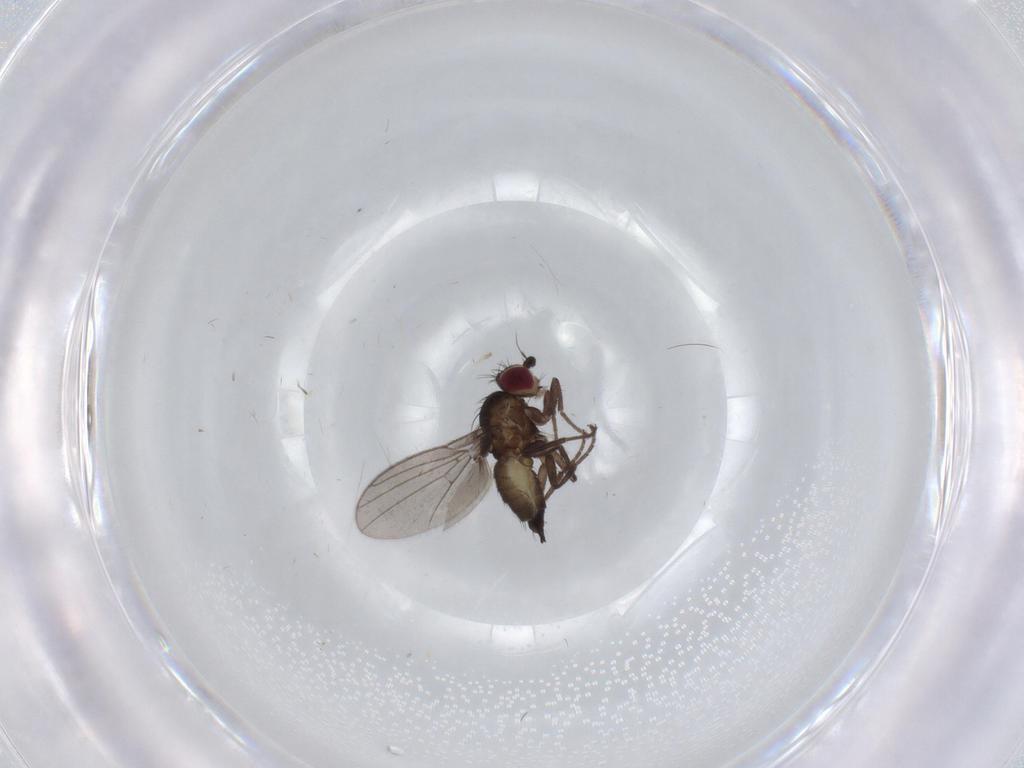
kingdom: Animalia
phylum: Arthropoda
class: Insecta
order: Diptera
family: Agromyzidae
